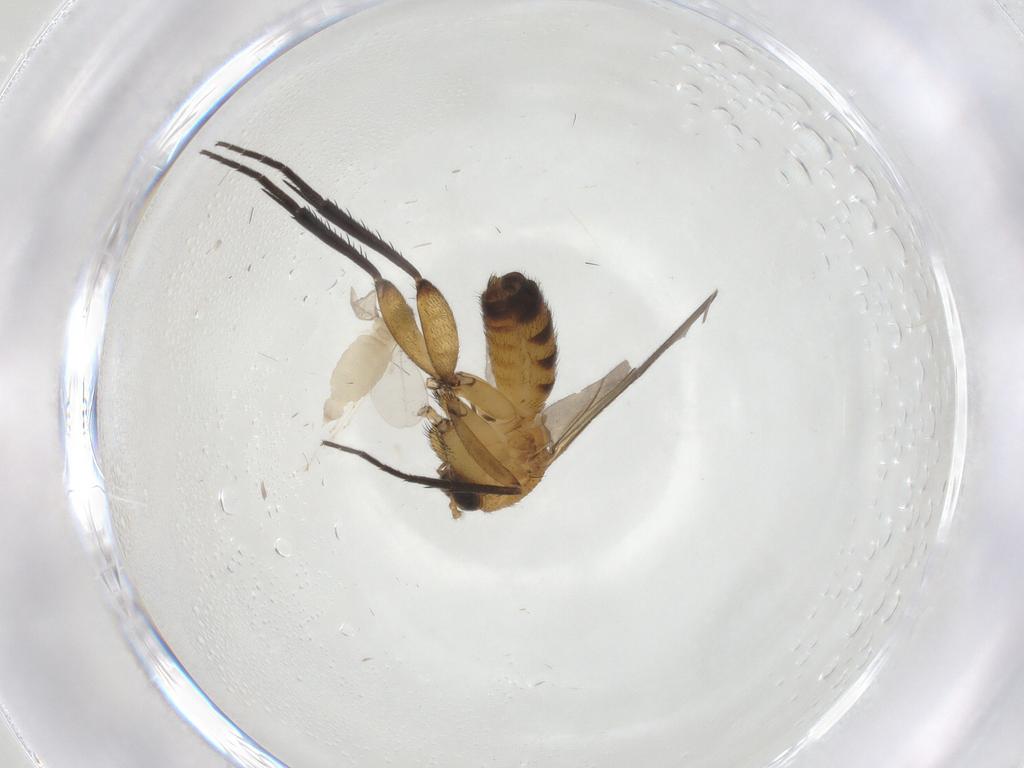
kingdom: Animalia
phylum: Arthropoda
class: Insecta
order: Diptera
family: Mycetophilidae
